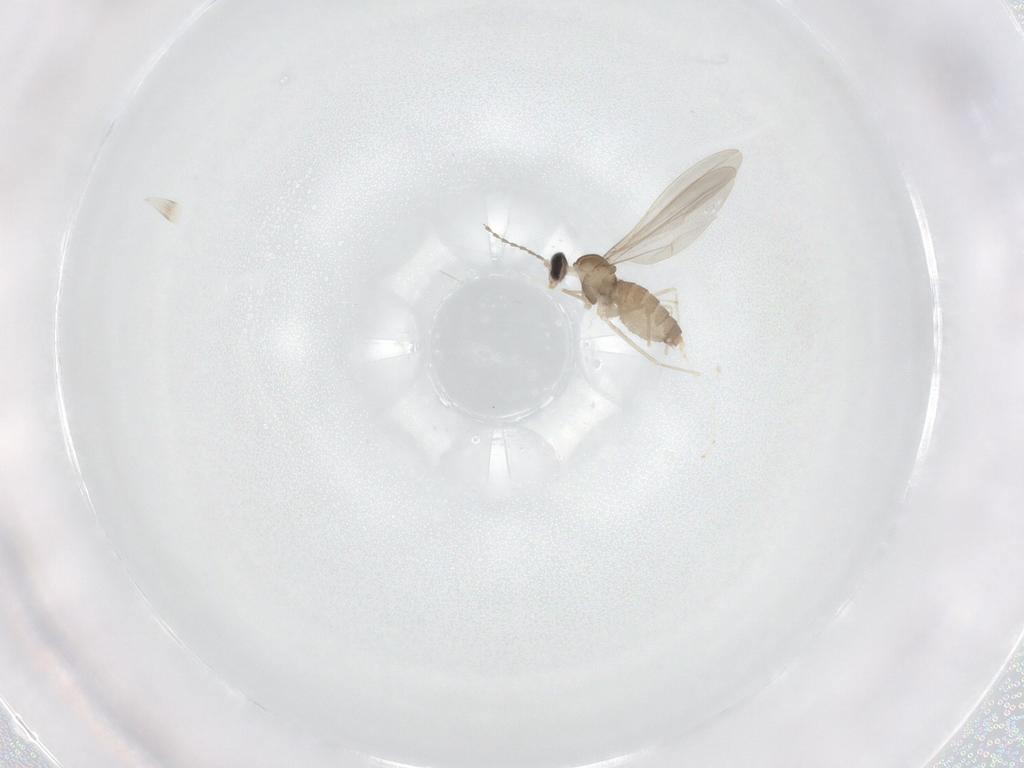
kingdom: Animalia
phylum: Arthropoda
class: Insecta
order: Diptera
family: Cecidomyiidae
